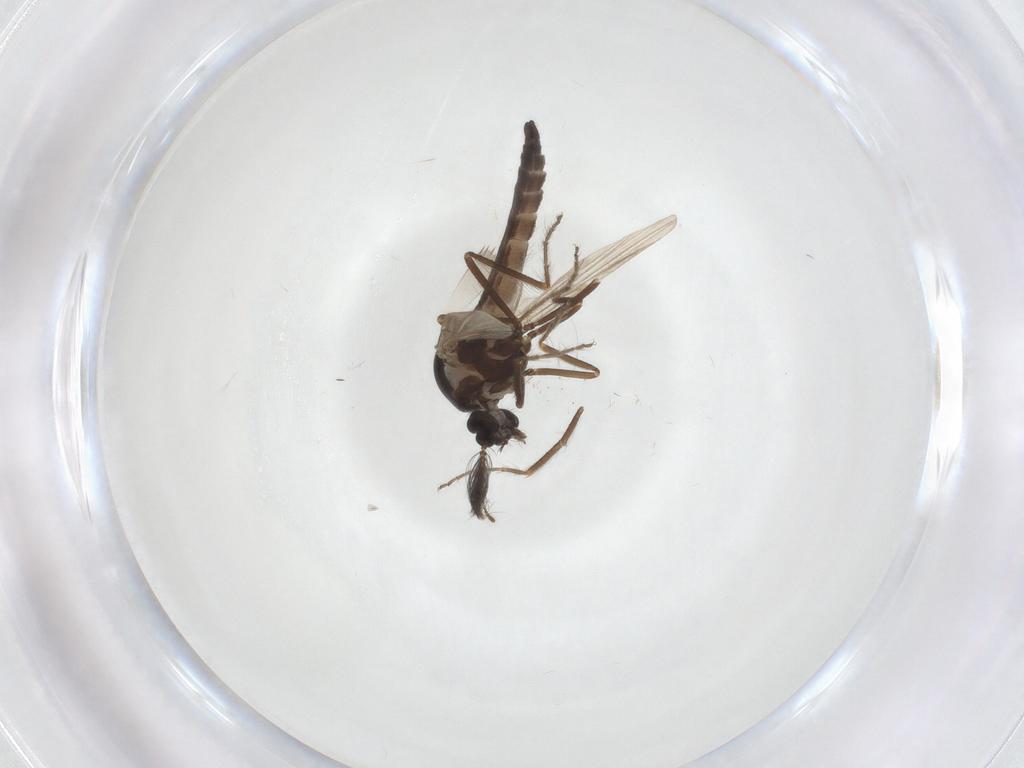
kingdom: Animalia
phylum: Arthropoda
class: Insecta
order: Diptera
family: Ceratopogonidae
